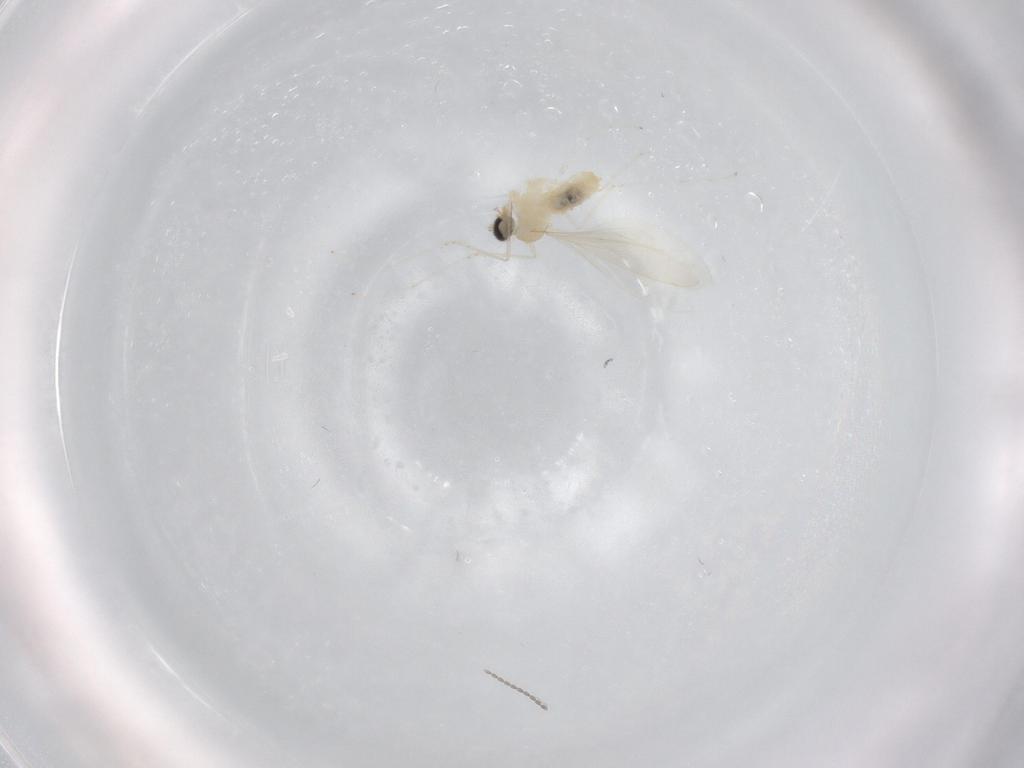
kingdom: Animalia
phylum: Arthropoda
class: Insecta
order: Diptera
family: Cecidomyiidae
